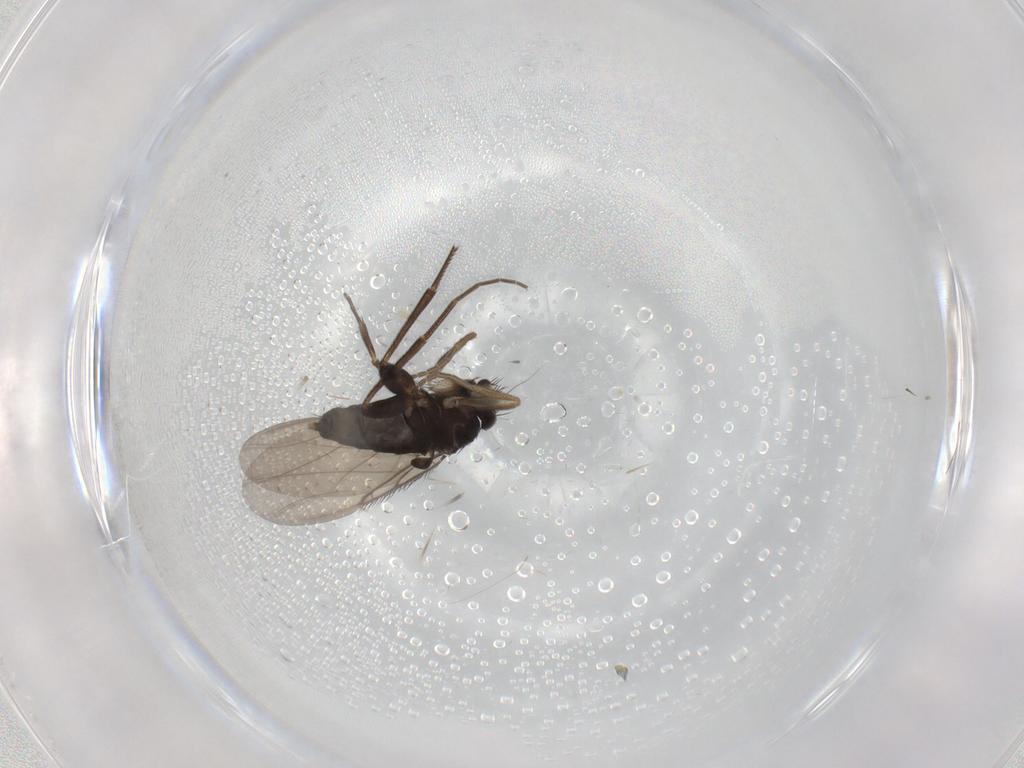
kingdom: Animalia
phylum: Arthropoda
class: Insecta
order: Diptera
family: Phoridae
